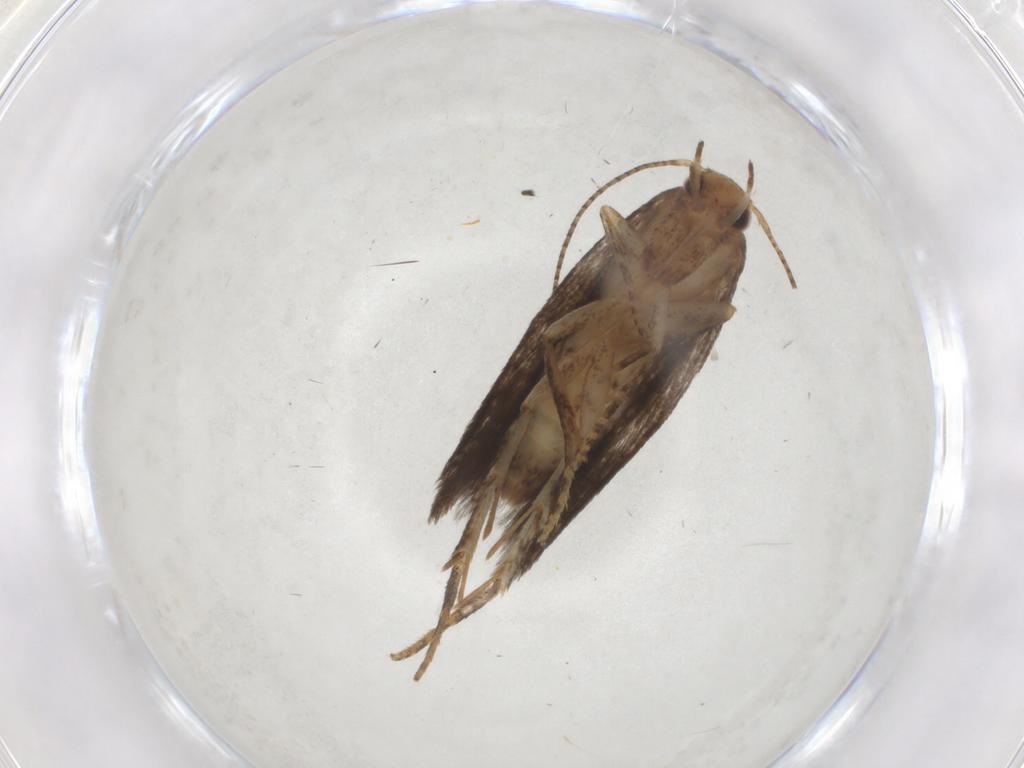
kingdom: Animalia
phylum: Arthropoda
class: Insecta
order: Lepidoptera
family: Gelechiidae
